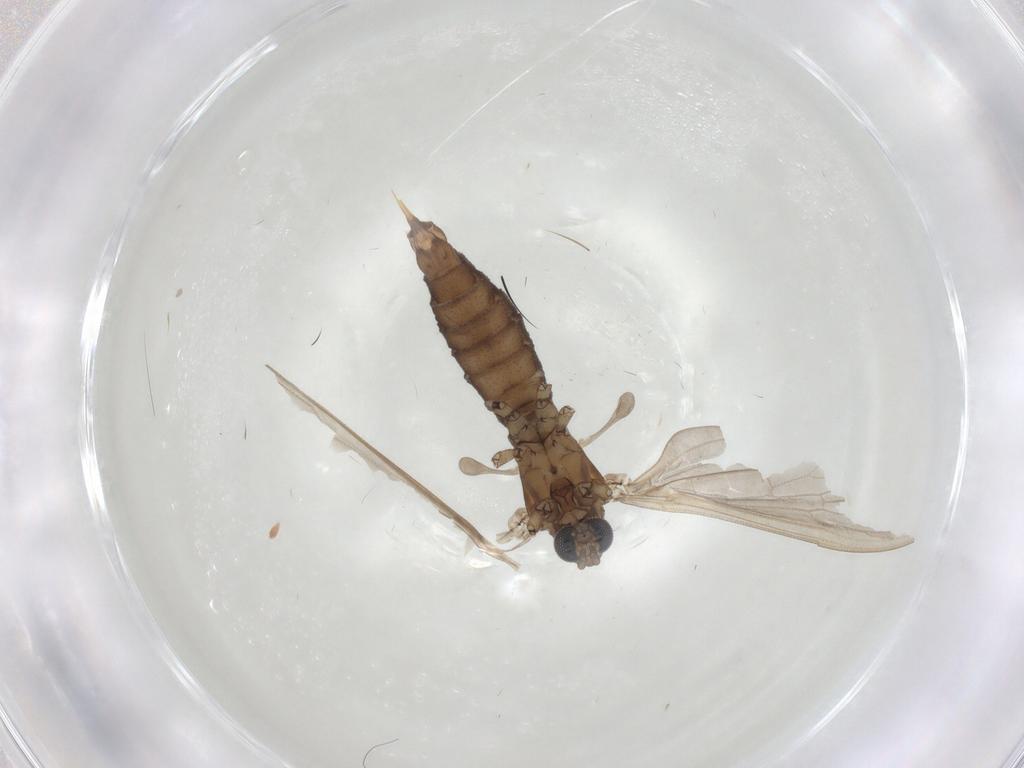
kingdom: Animalia
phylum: Arthropoda
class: Insecta
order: Diptera
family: Limoniidae
